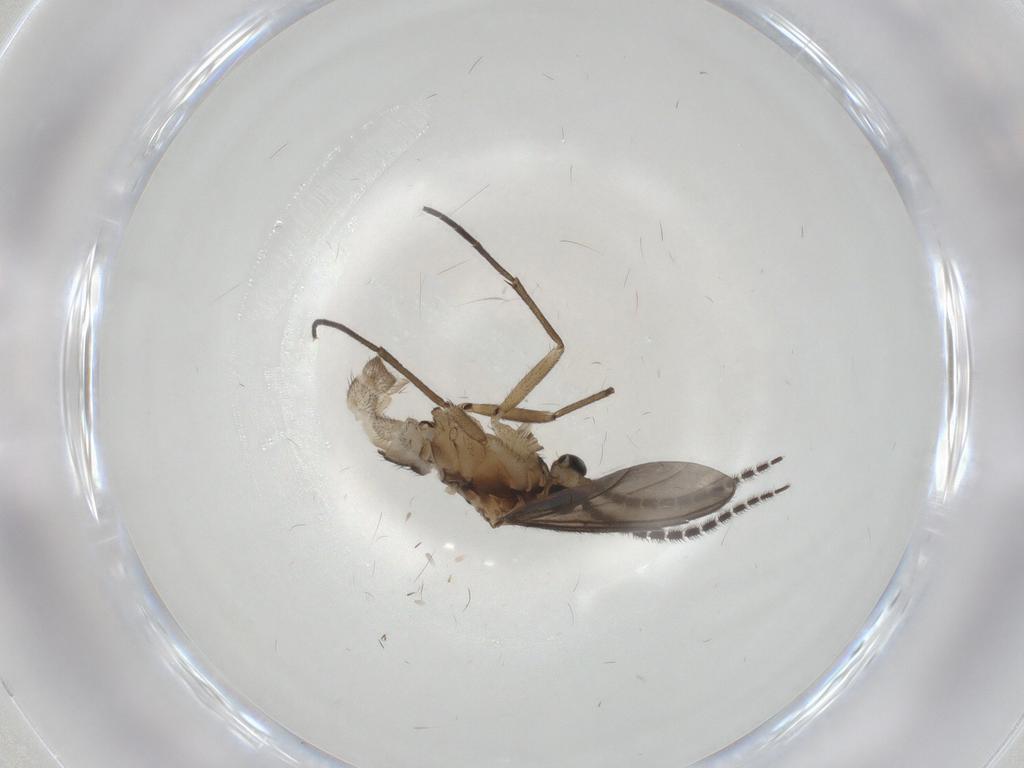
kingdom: Animalia
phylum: Arthropoda
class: Insecta
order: Diptera
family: Sciaridae
